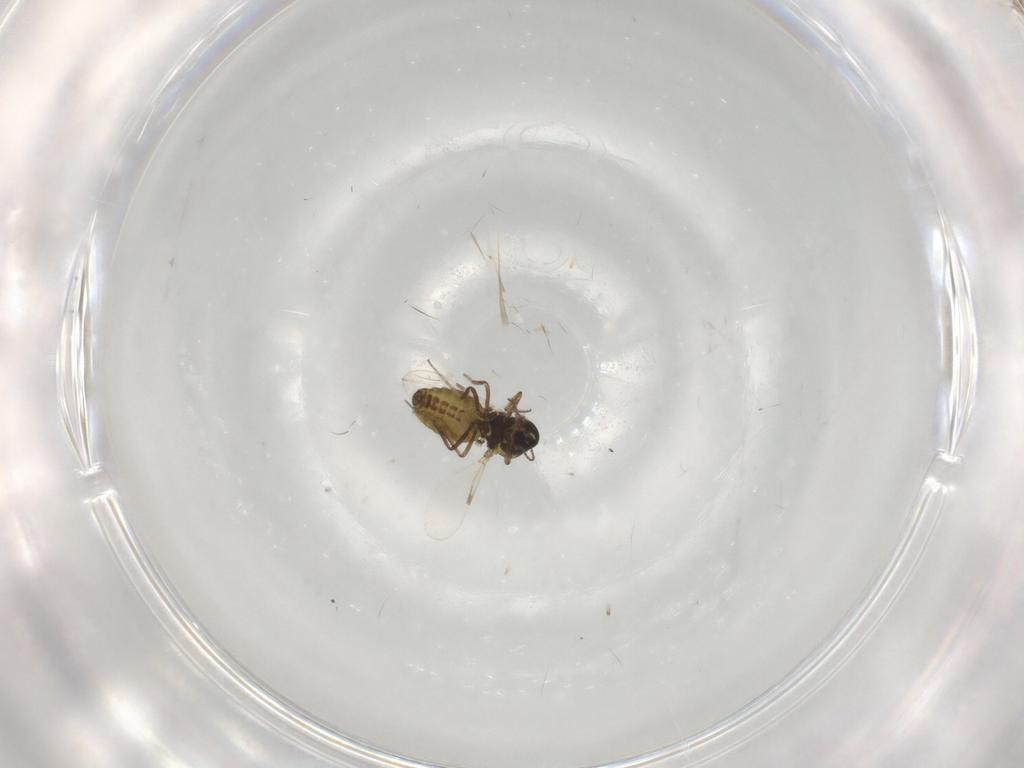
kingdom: Animalia
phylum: Arthropoda
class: Insecta
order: Diptera
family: Ceratopogonidae
